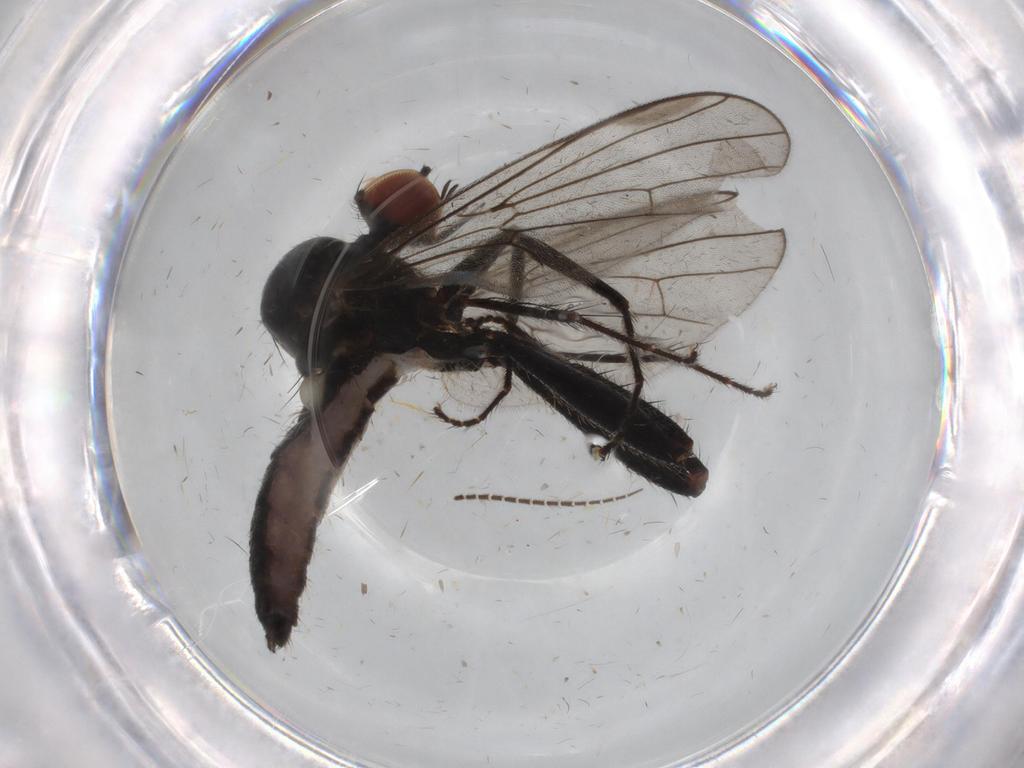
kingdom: Animalia
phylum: Arthropoda
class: Insecta
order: Diptera
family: Hybotidae
